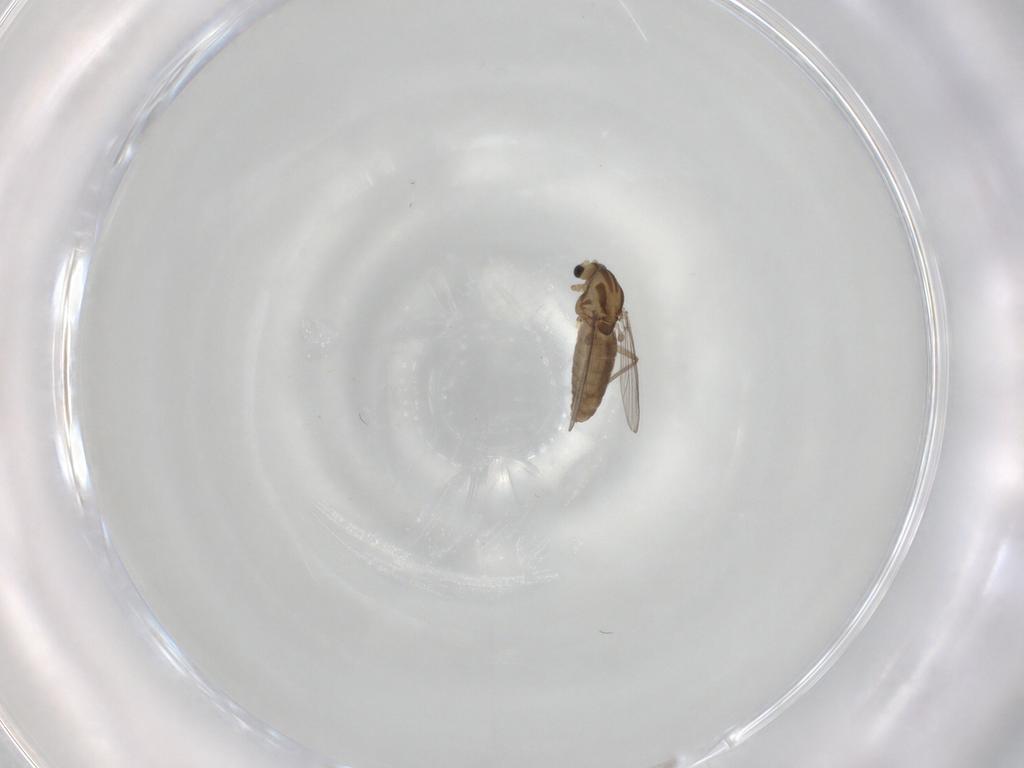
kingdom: Animalia
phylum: Arthropoda
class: Insecta
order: Diptera
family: Chironomidae
